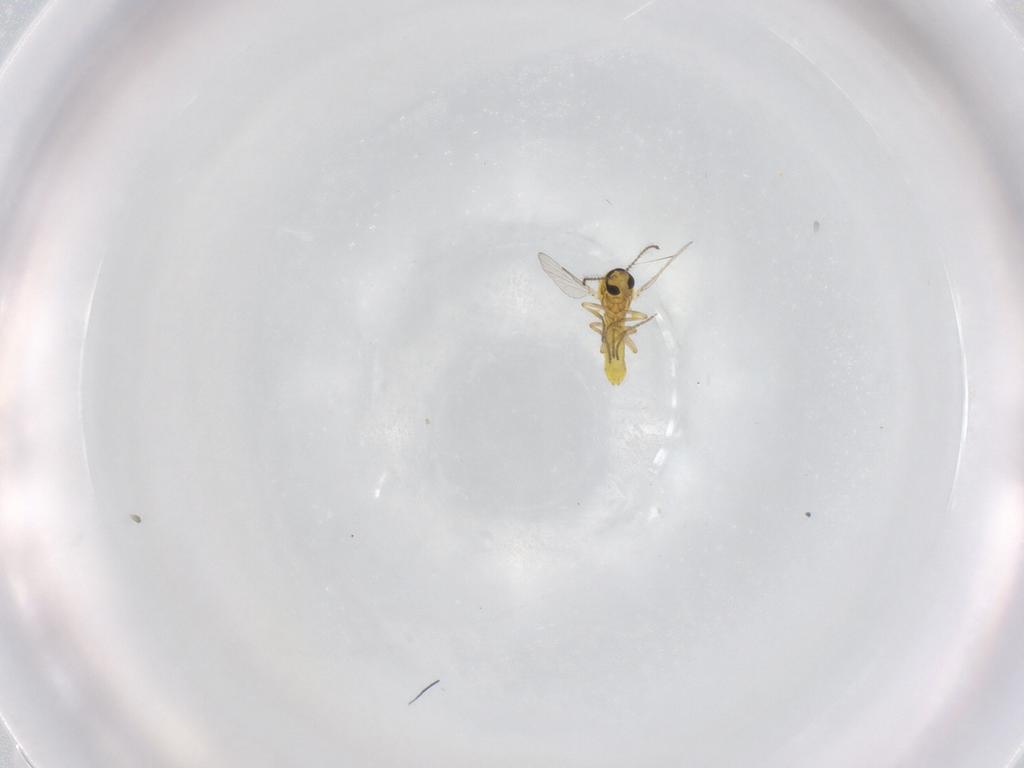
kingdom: Animalia
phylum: Arthropoda
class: Insecta
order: Diptera
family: Ceratopogonidae
